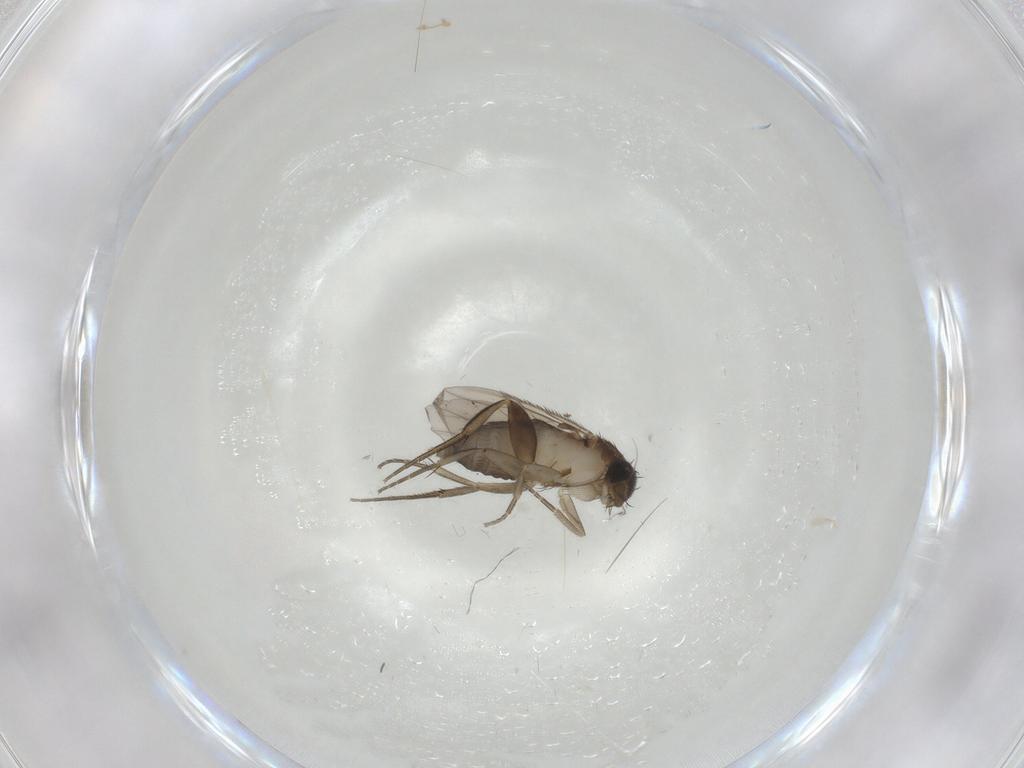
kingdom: Animalia
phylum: Arthropoda
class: Insecta
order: Diptera
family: Phoridae
